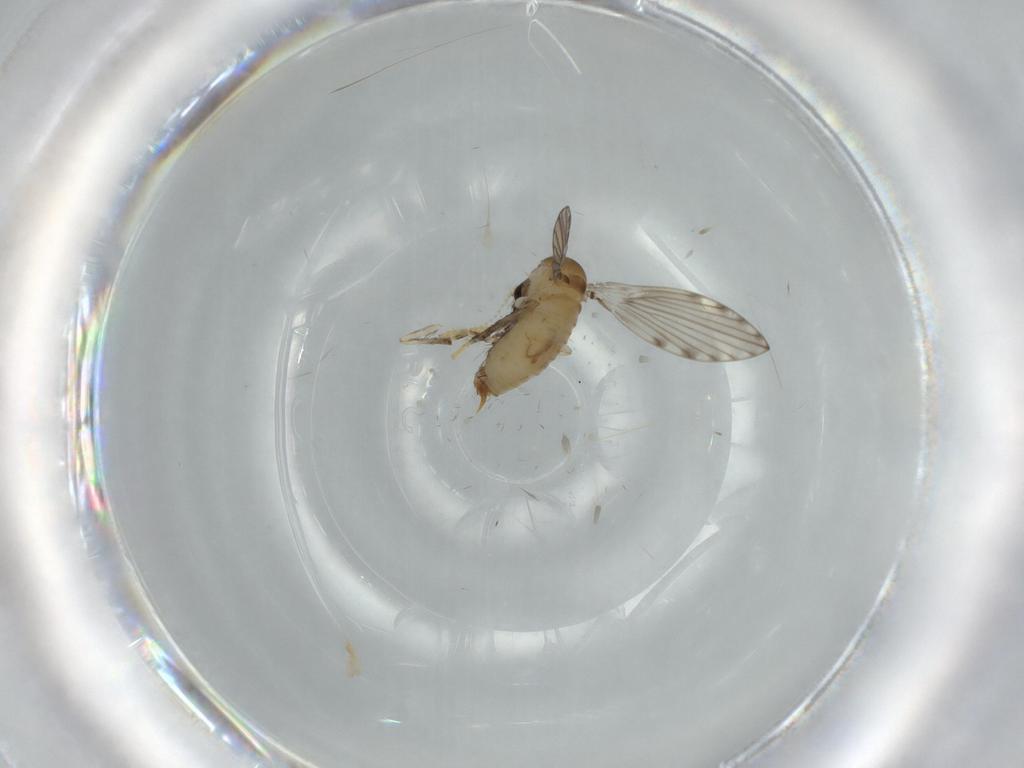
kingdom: Animalia
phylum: Arthropoda
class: Insecta
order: Diptera
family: Psychodidae
